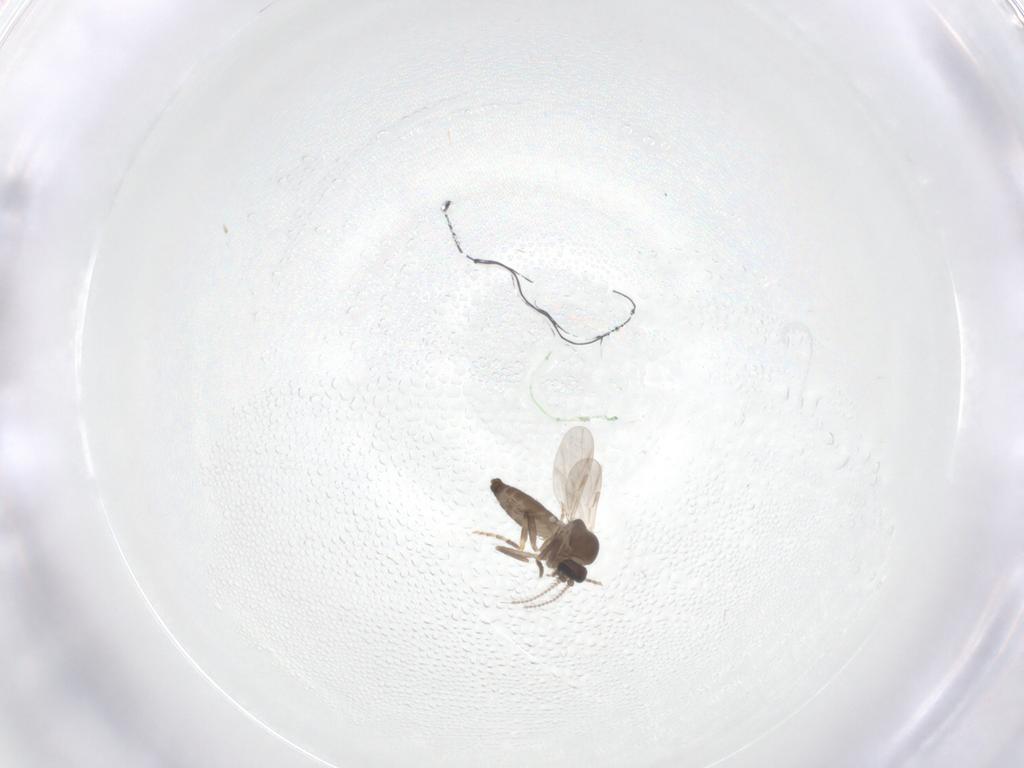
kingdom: Animalia
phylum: Arthropoda
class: Insecta
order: Diptera
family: Ceratopogonidae
